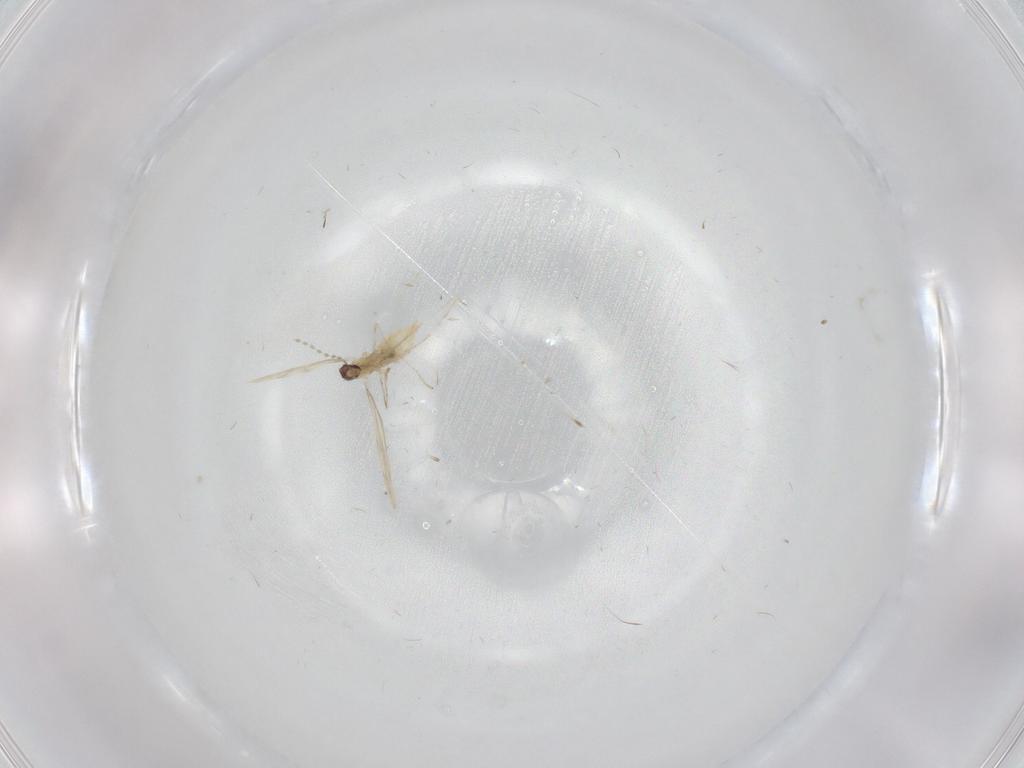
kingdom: Animalia
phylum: Arthropoda
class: Insecta
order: Diptera
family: Cecidomyiidae
